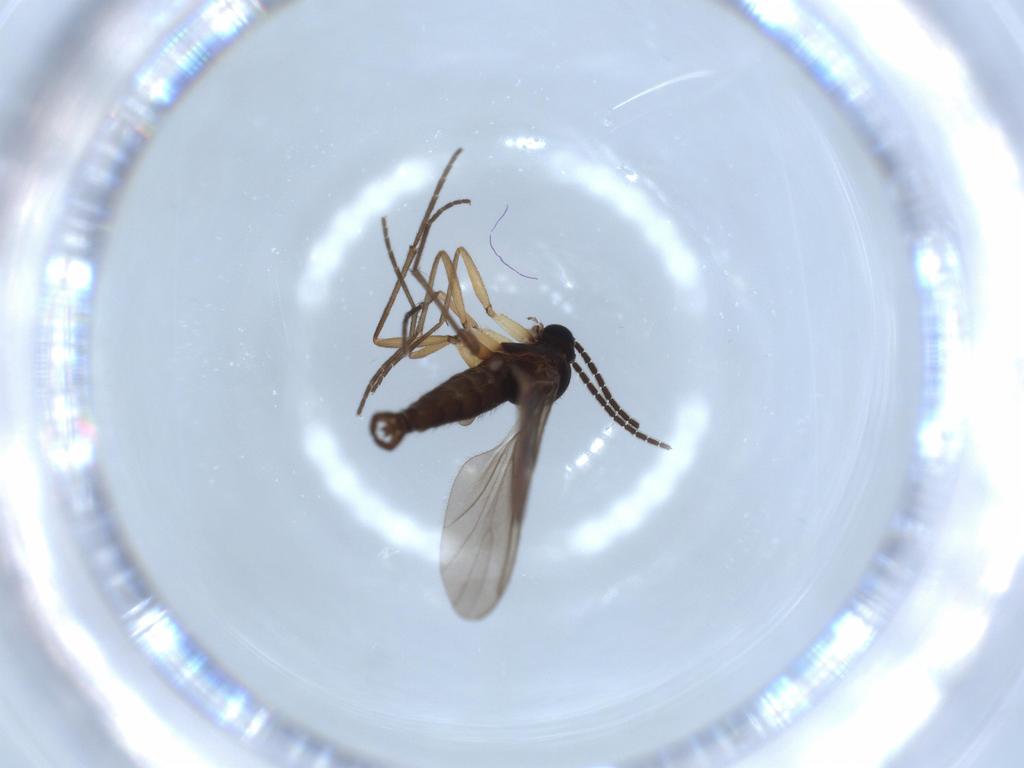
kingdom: Animalia
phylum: Arthropoda
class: Insecta
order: Diptera
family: Sciaridae
